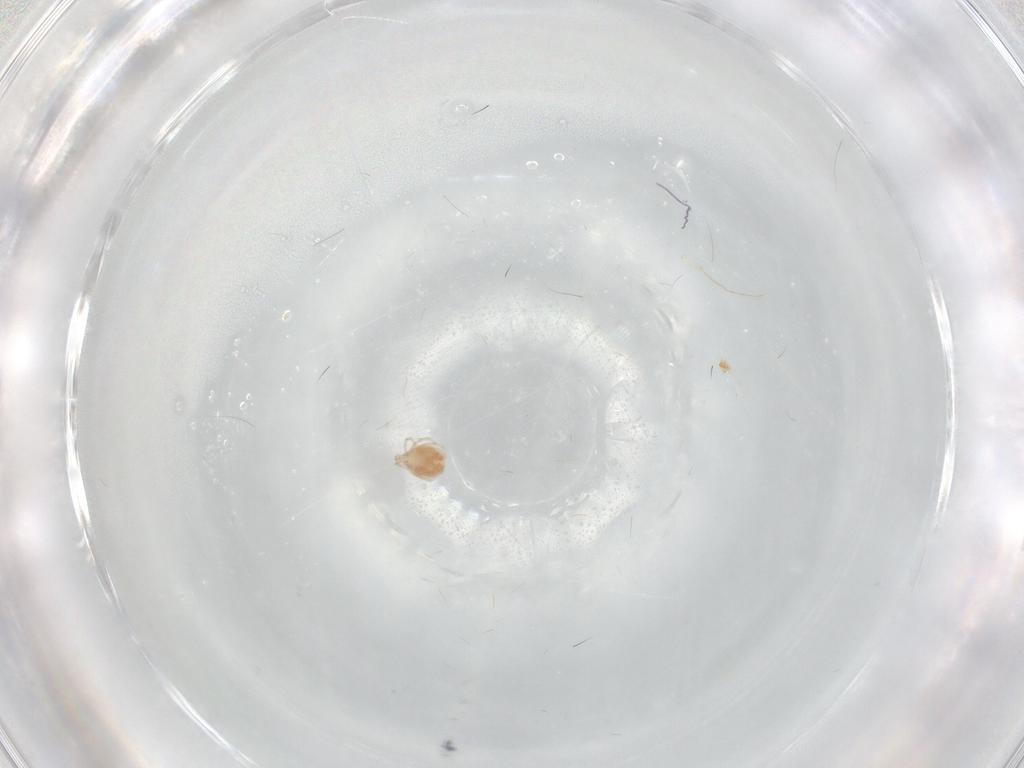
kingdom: Animalia
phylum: Arthropoda
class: Arachnida
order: Trombidiformes
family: Hygrobatidae
